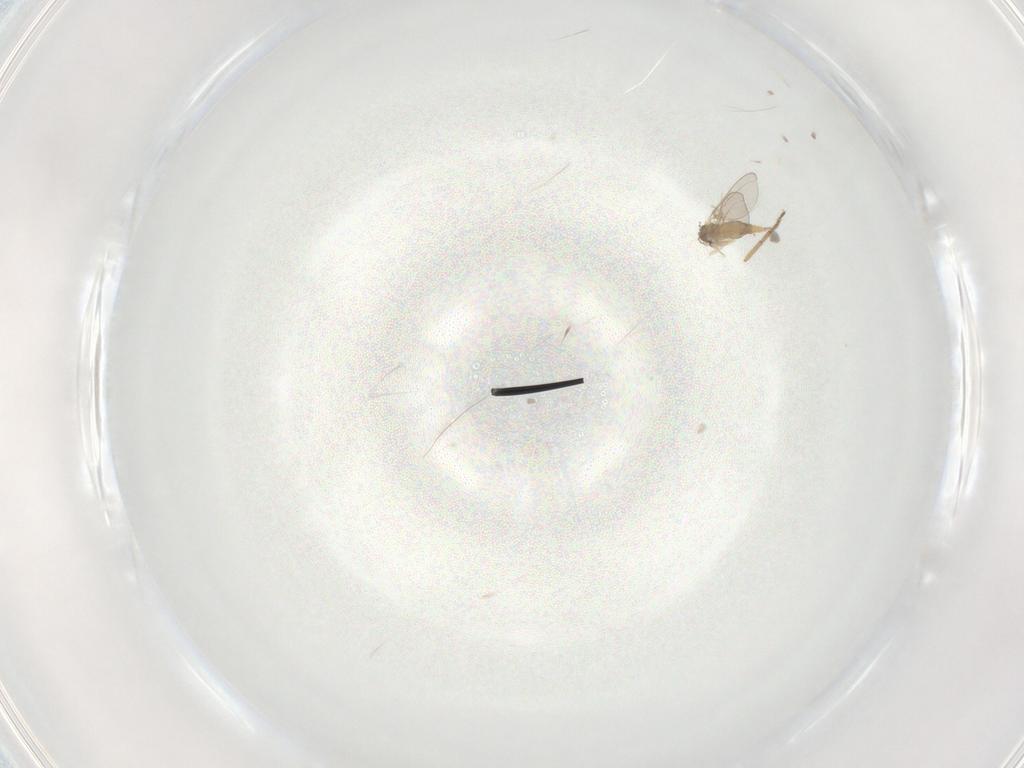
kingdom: Animalia
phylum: Arthropoda
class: Insecta
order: Diptera
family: Cecidomyiidae
